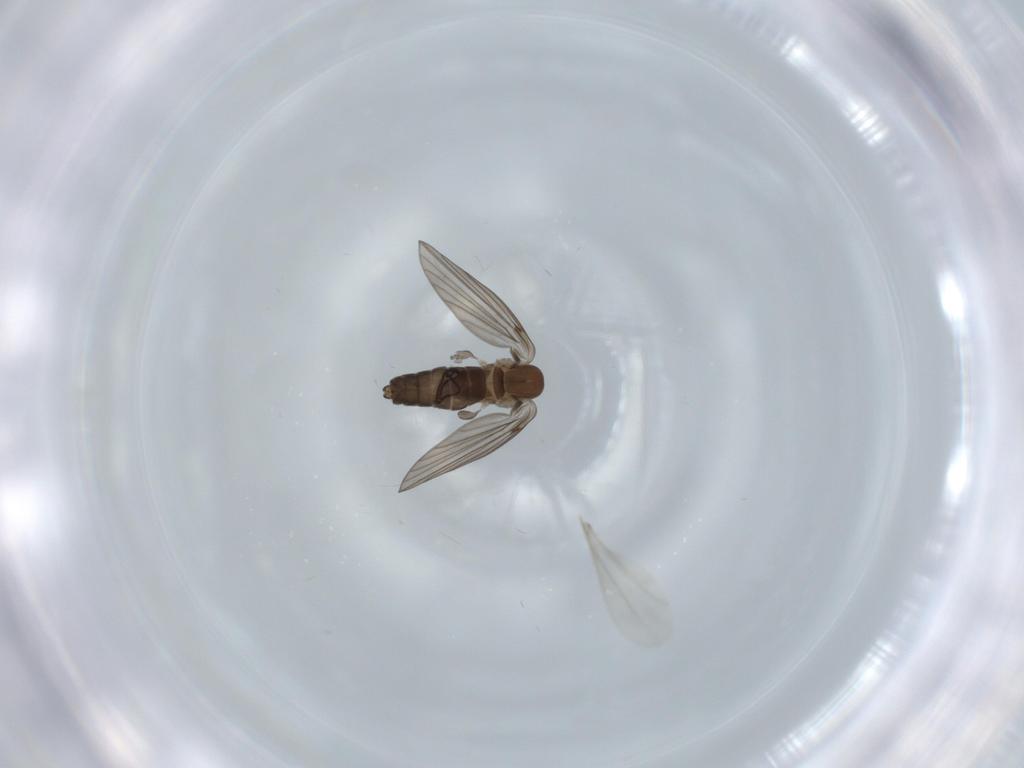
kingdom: Animalia
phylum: Arthropoda
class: Insecta
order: Diptera
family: Psychodidae
